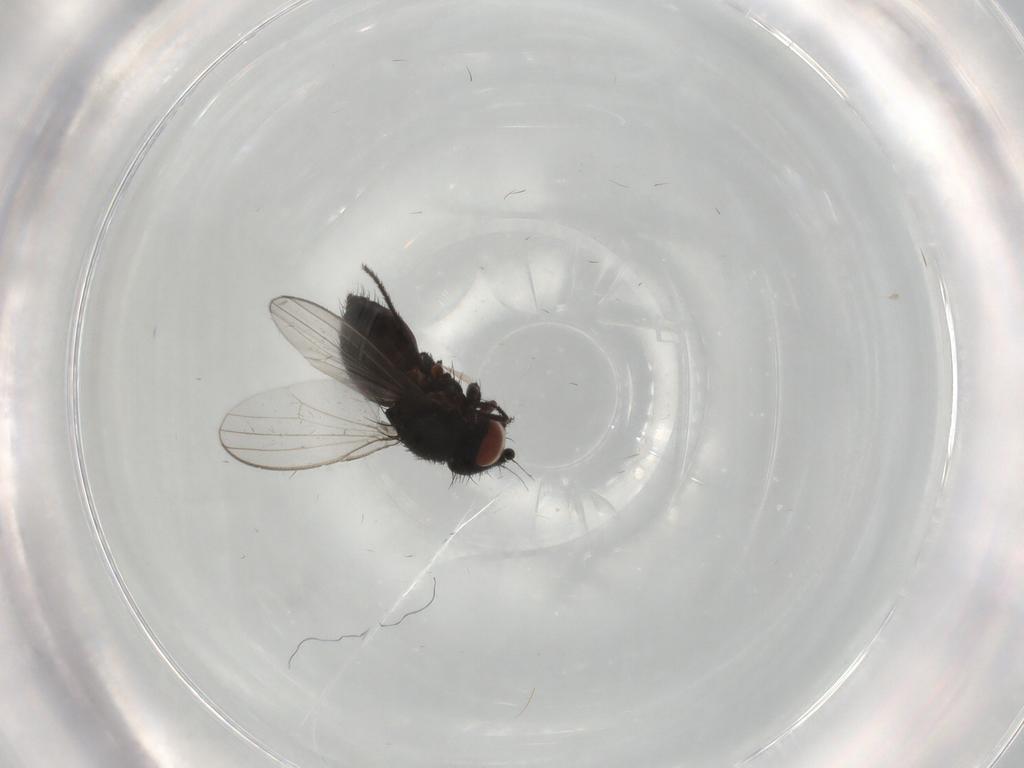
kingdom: Animalia
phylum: Arthropoda
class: Insecta
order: Diptera
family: Milichiidae
